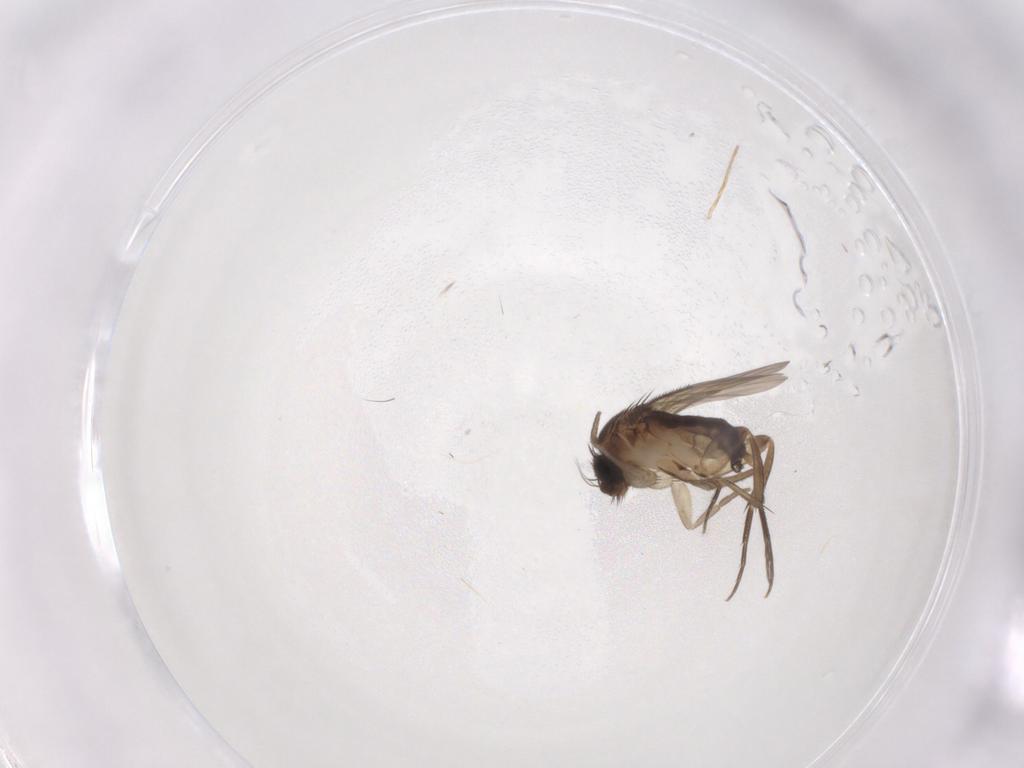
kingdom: Animalia
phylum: Arthropoda
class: Insecta
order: Diptera
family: Phoridae
